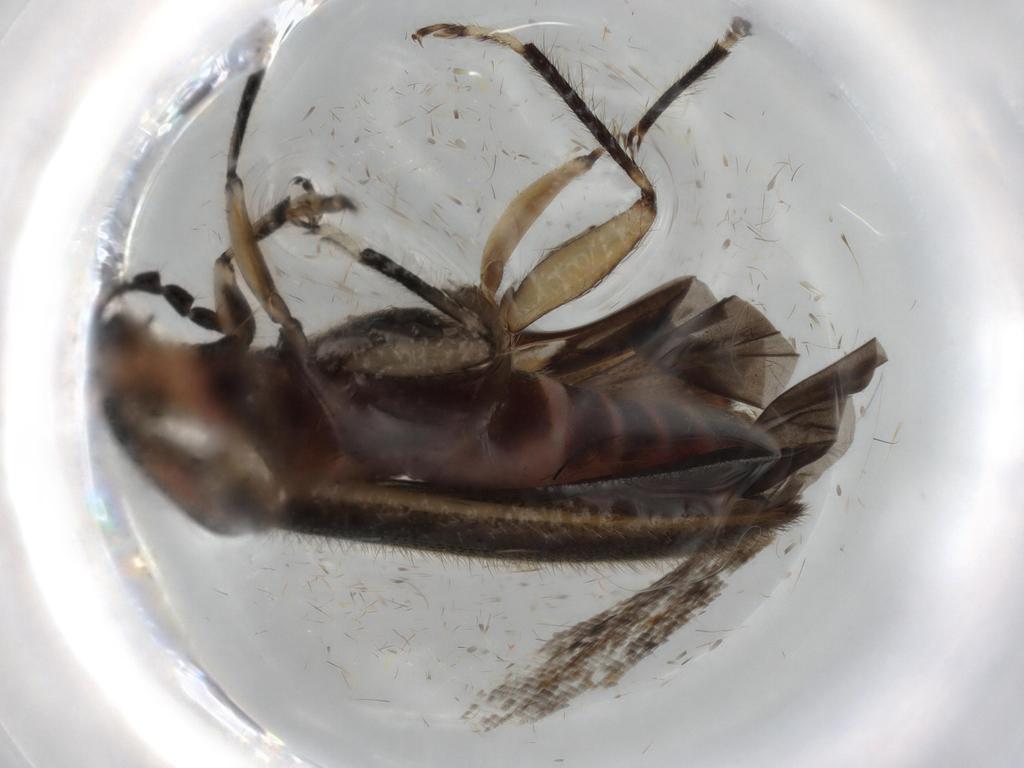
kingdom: Animalia
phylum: Arthropoda
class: Insecta
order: Coleoptera
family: Cleridae
